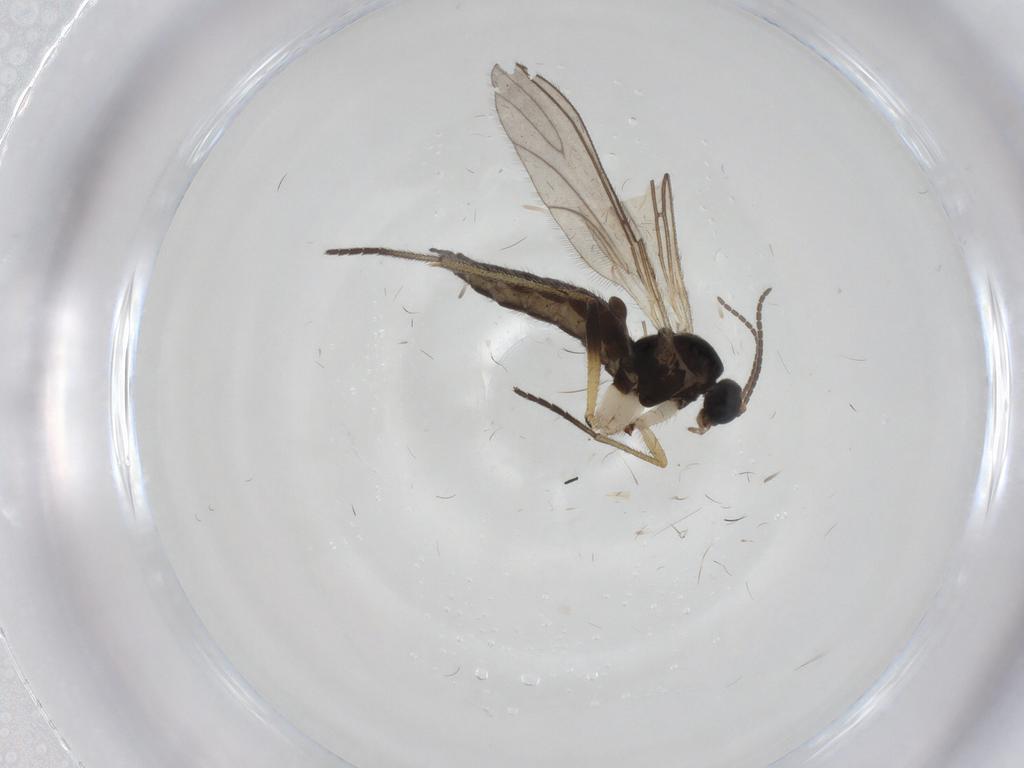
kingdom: Animalia
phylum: Arthropoda
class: Insecta
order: Diptera
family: Sciaridae
